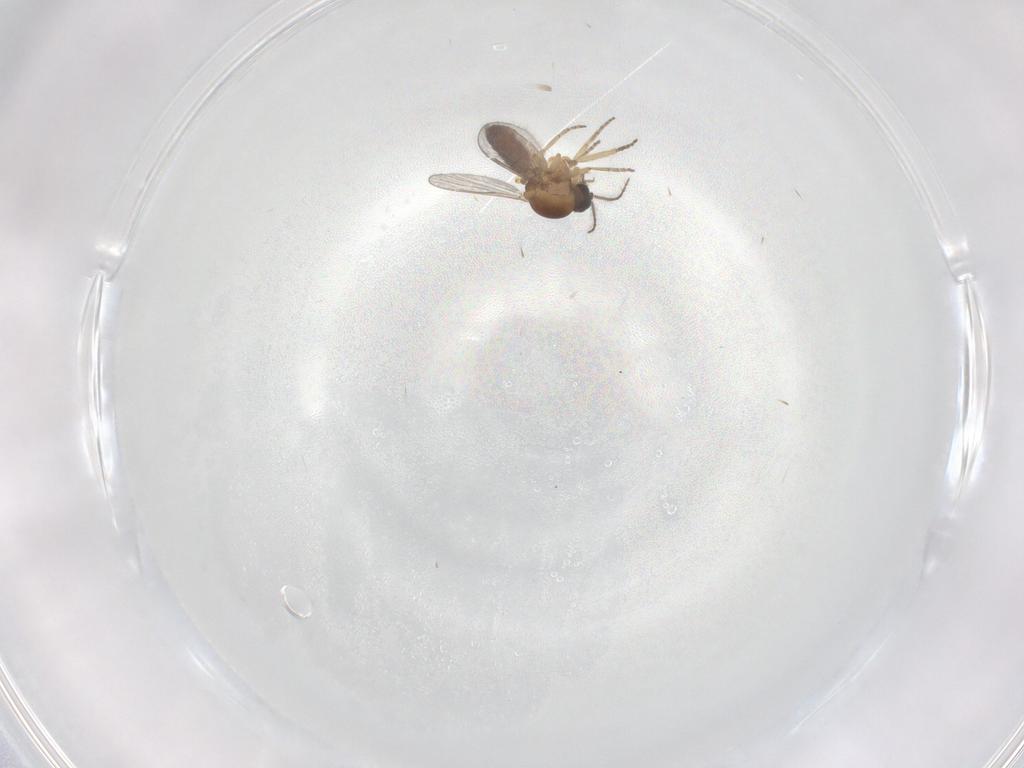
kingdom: Animalia
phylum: Arthropoda
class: Insecta
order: Diptera
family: Ceratopogonidae
